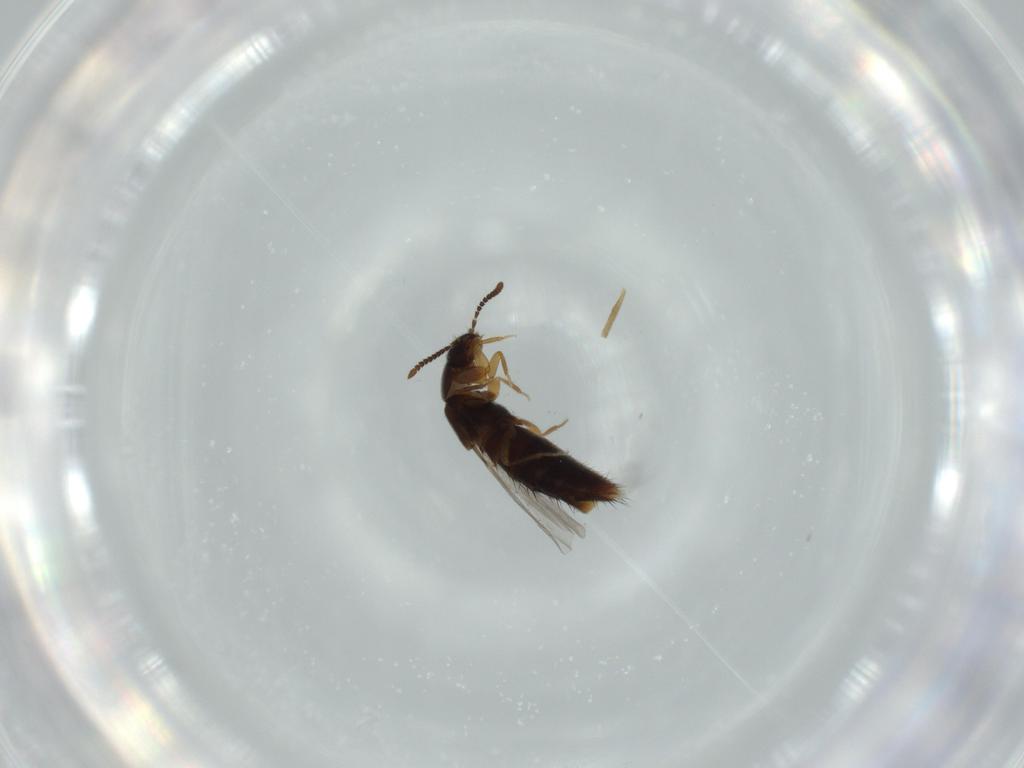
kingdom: Animalia
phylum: Arthropoda
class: Insecta
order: Coleoptera
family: Staphylinidae
